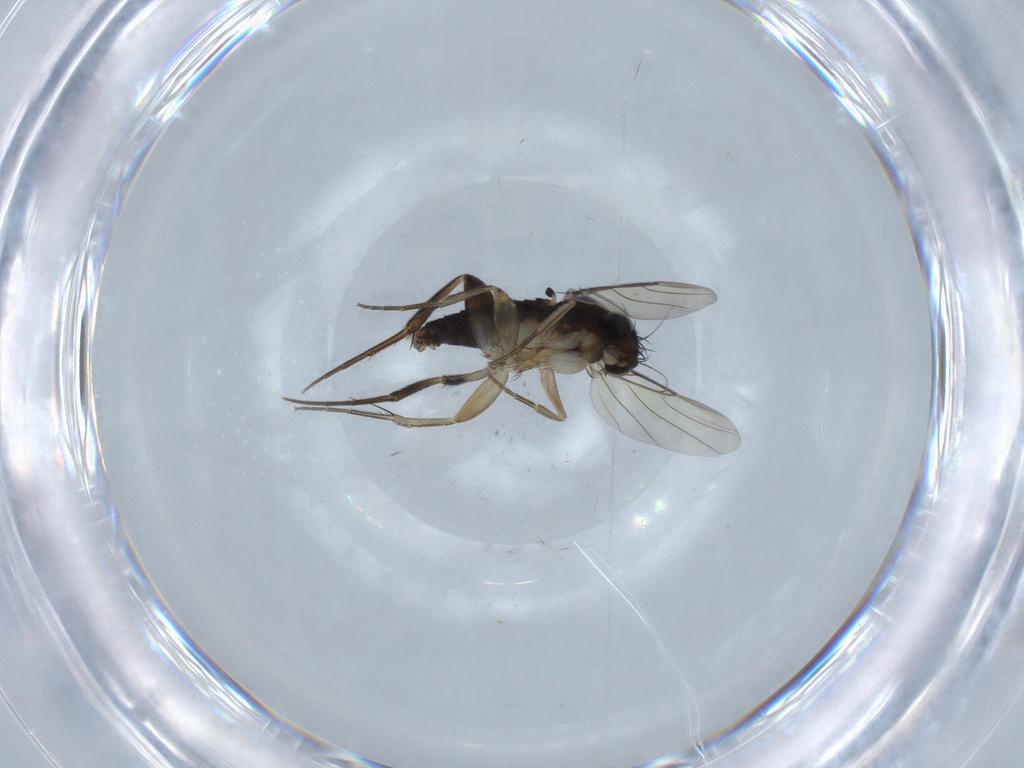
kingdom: Animalia
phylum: Arthropoda
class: Insecta
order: Diptera
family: Phoridae
